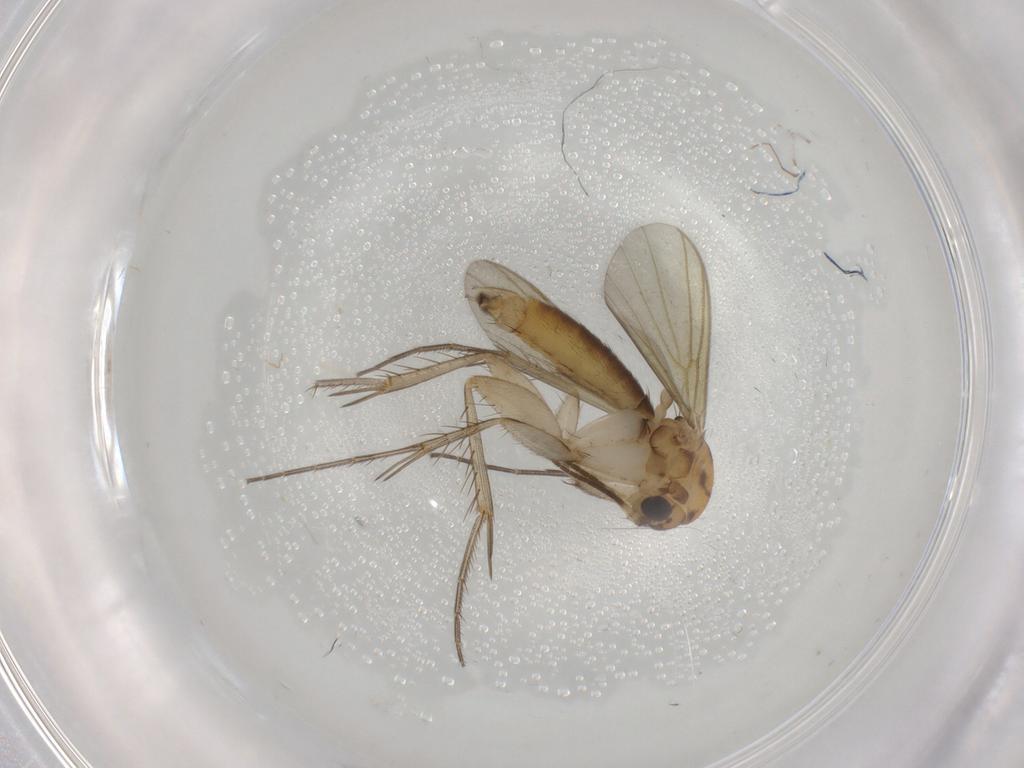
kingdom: Animalia
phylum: Arthropoda
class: Insecta
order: Diptera
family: Mycetophilidae
